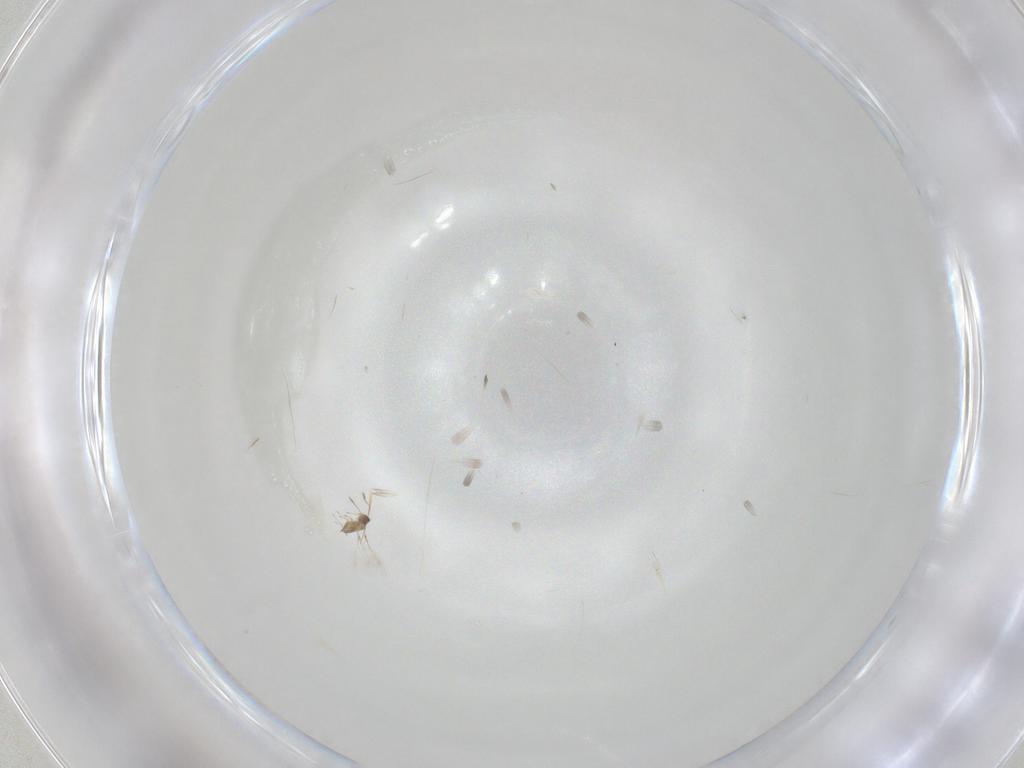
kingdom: Animalia
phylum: Arthropoda
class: Insecta
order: Hymenoptera
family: Mymaridae
